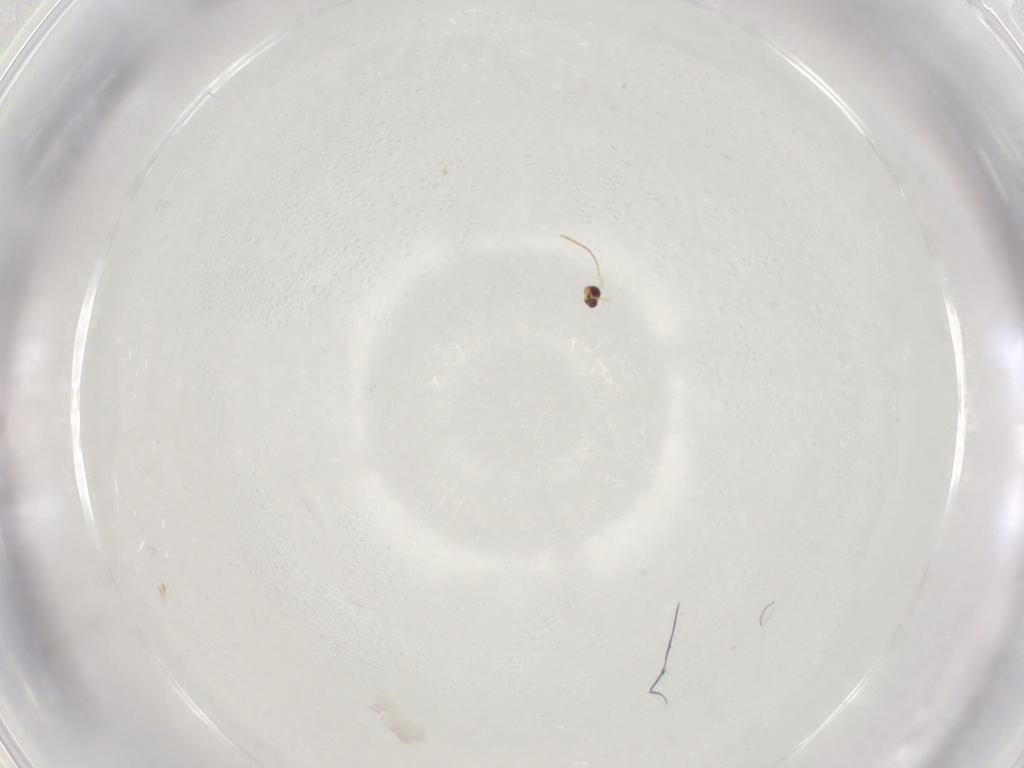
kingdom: Animalia
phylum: Arthropoda
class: Insecta
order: Hymenoptera
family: Mymaridae
